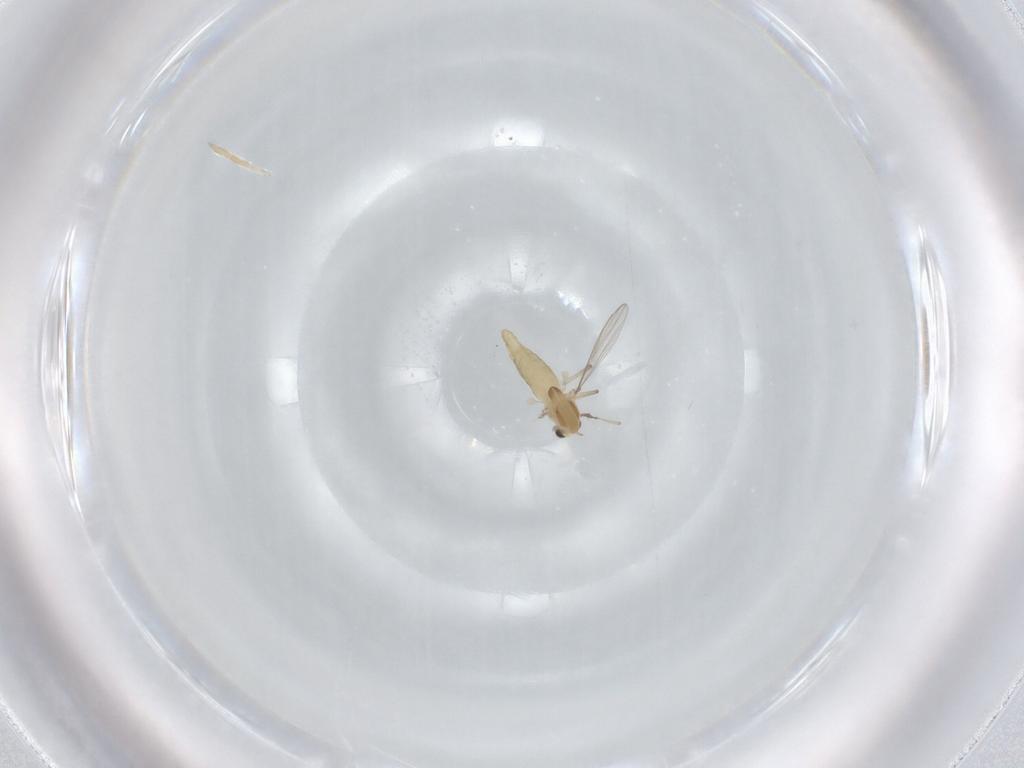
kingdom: Animalia
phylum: Arthropoda
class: Insecta
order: Diptera
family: Chironomidae
